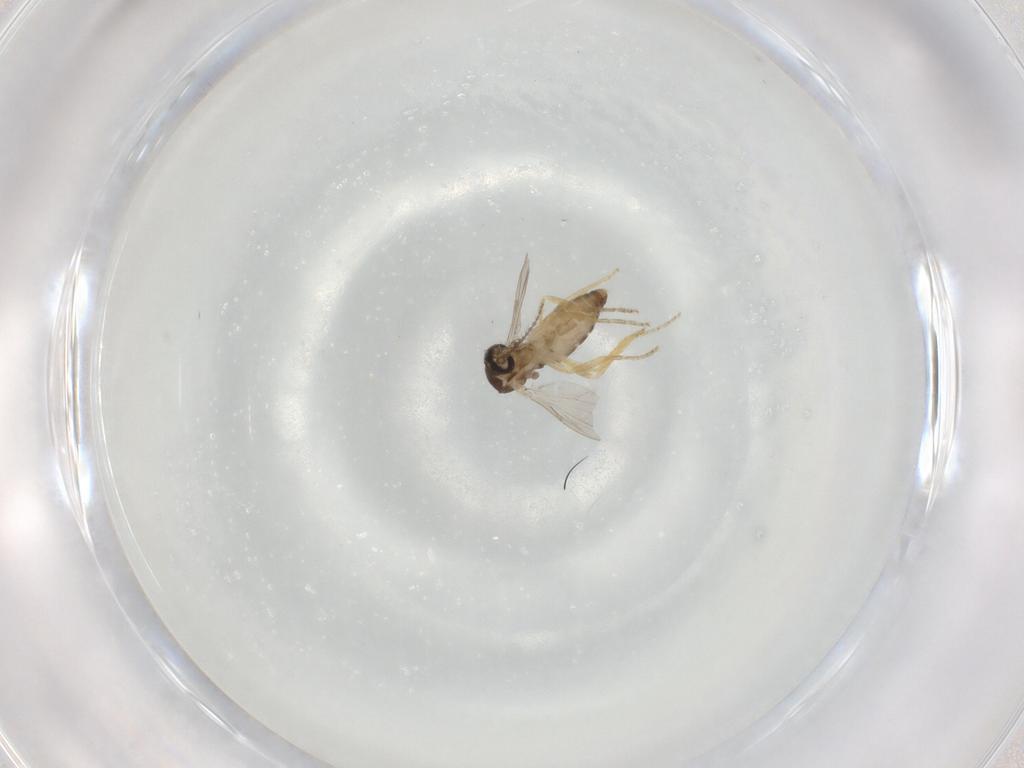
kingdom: Animalia
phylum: Arthropoda
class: Insecta
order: Diptera
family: Ceratopogonidae
